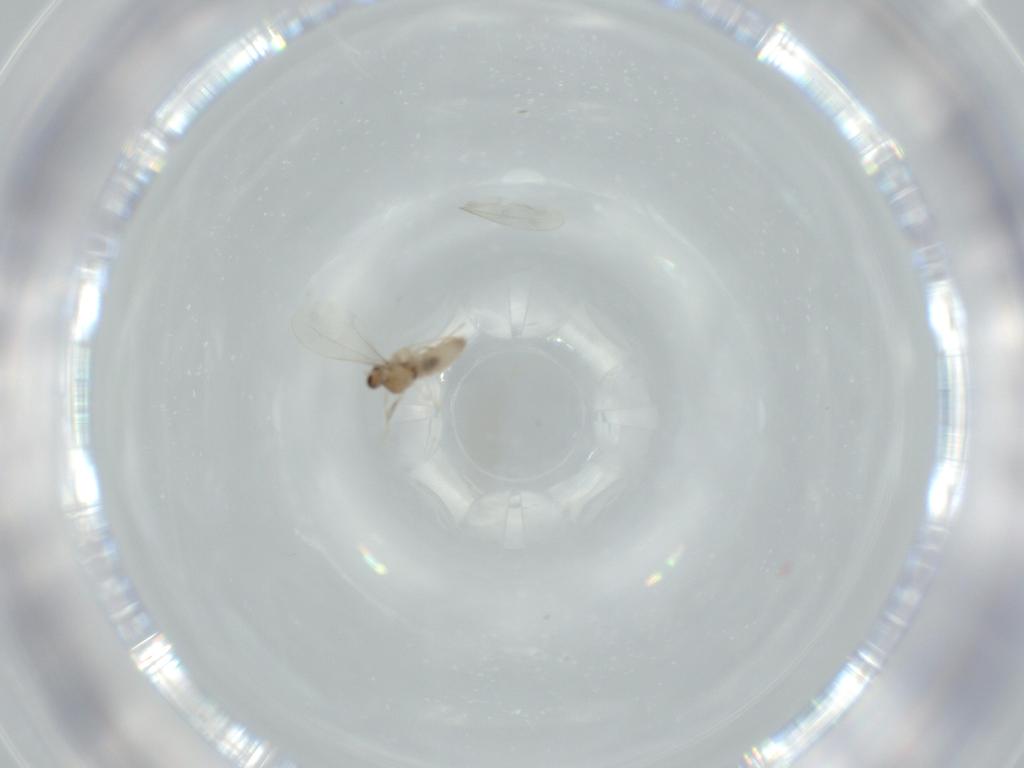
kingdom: Animalia
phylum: Arthropoda
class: Insecta
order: Diptera
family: Cecidomyiidae
